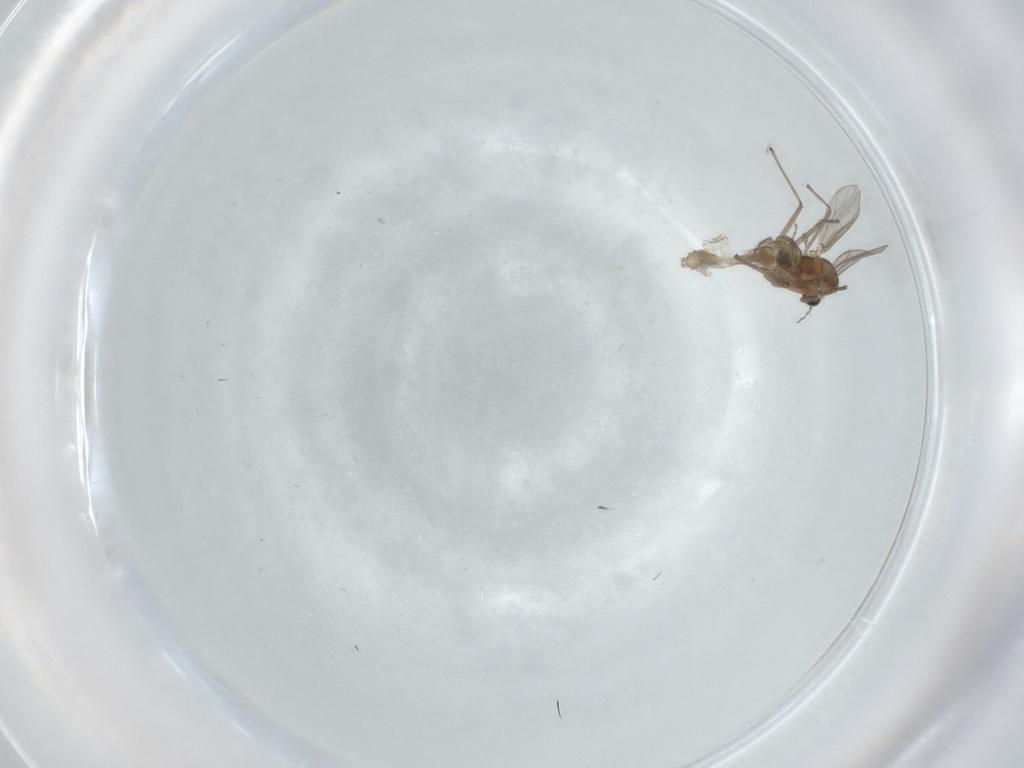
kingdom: Animalia
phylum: Arthropoda
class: Insecta
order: Diptera
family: Chironomidae
